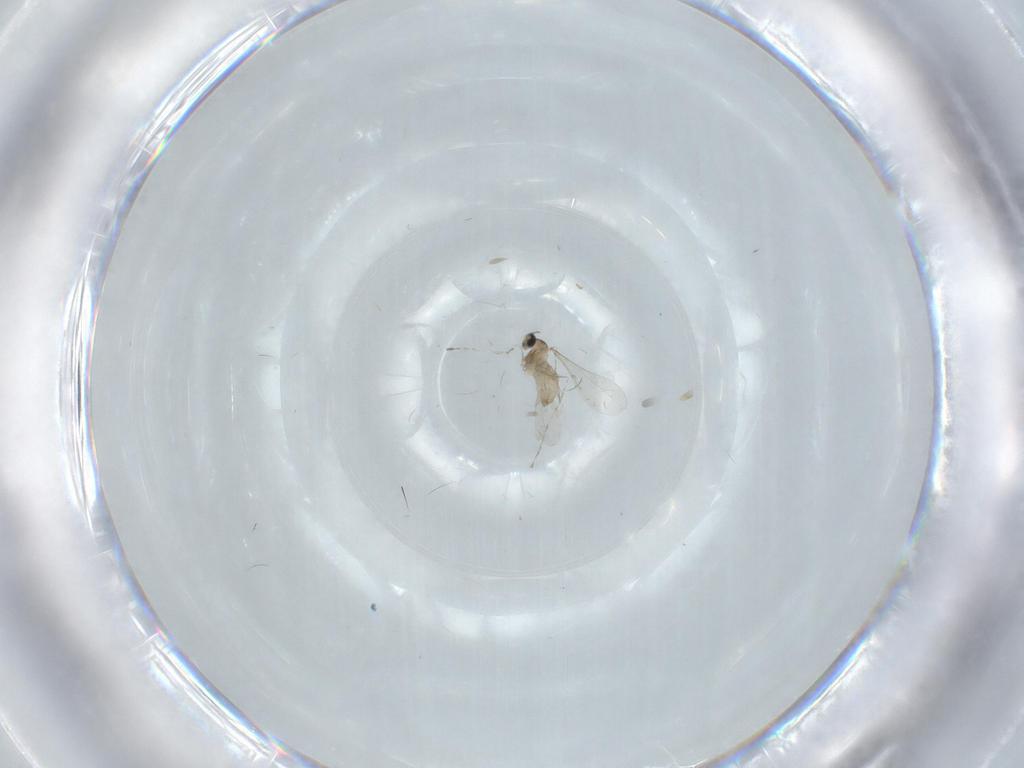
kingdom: Animalia
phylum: Arthropoda
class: Insecta
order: Diptera
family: Cecidomyiidae
